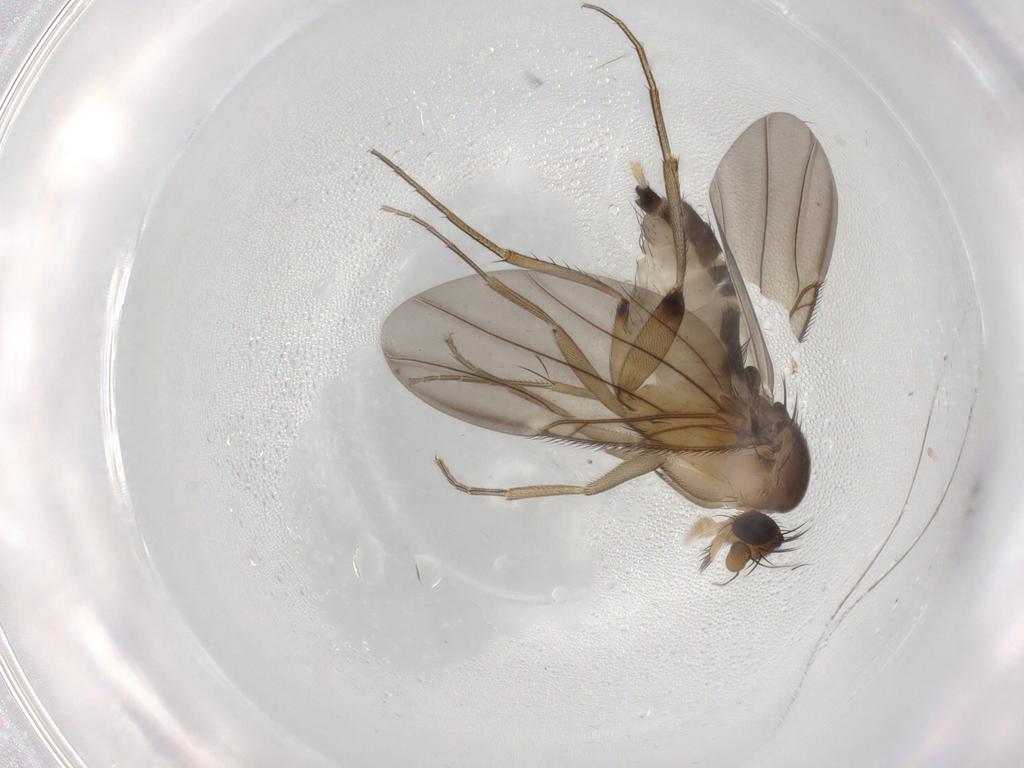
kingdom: Animalia
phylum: Arthropoda
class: Insecta
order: Diptera
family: Phoridae
